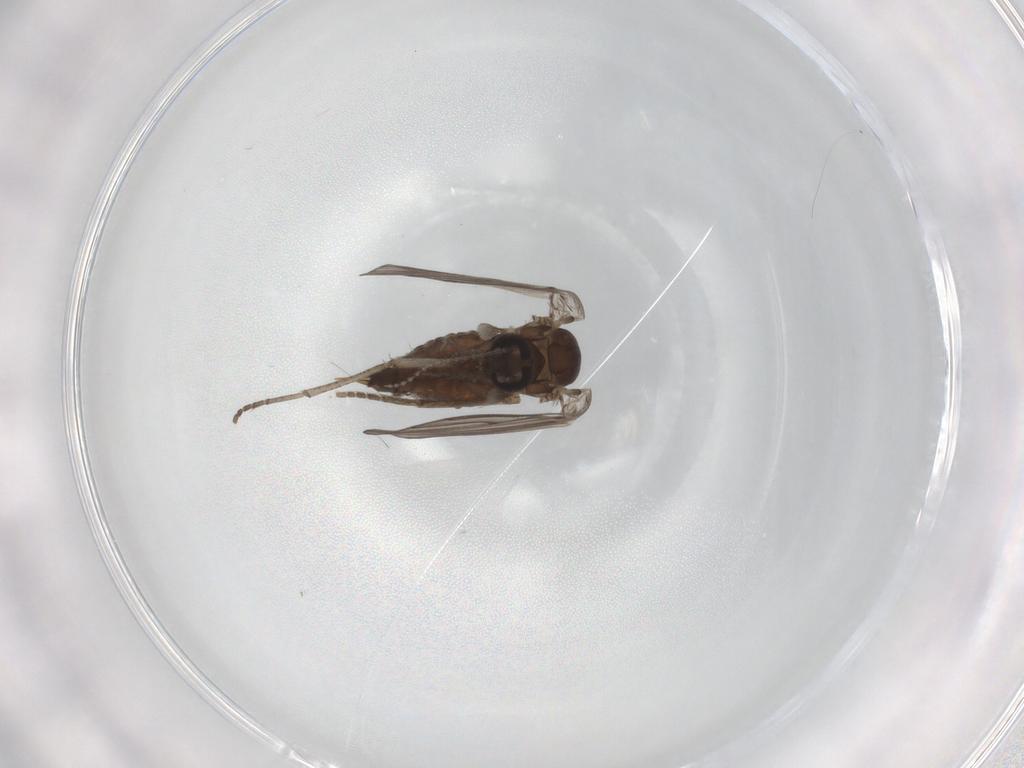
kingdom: Animalia
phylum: Arthropoda
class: Insecta
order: Diptera
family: Psychodidae
